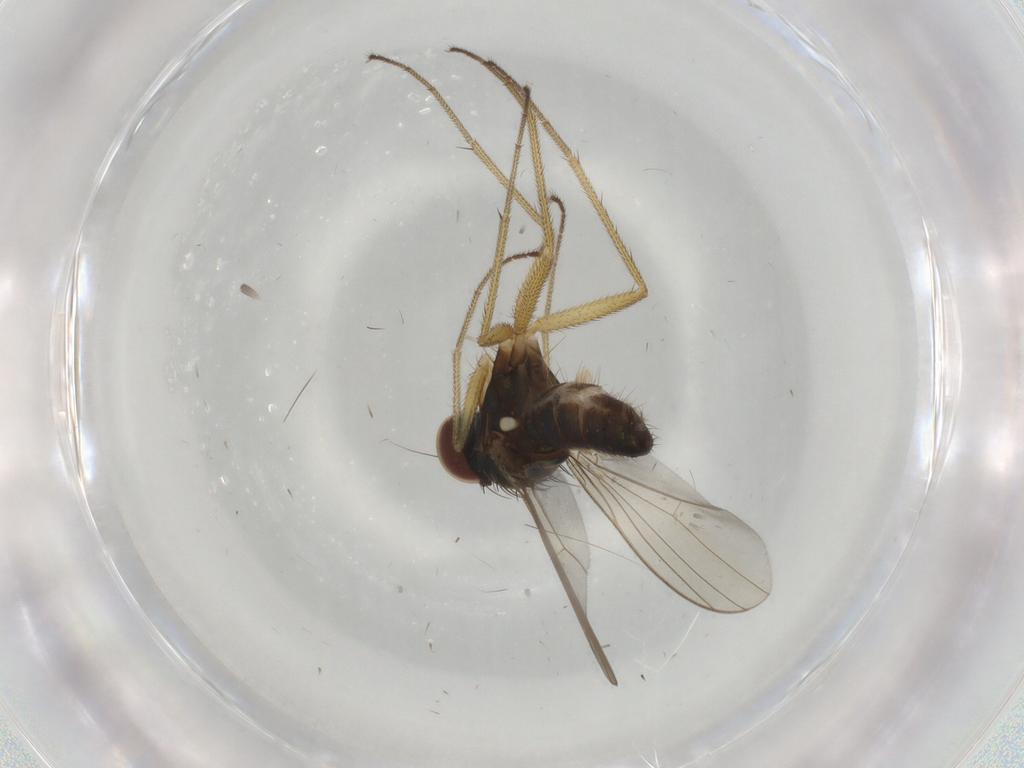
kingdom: Animalia
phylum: Arthropoda
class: Insecta
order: Diptera
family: Dolichopodidae
